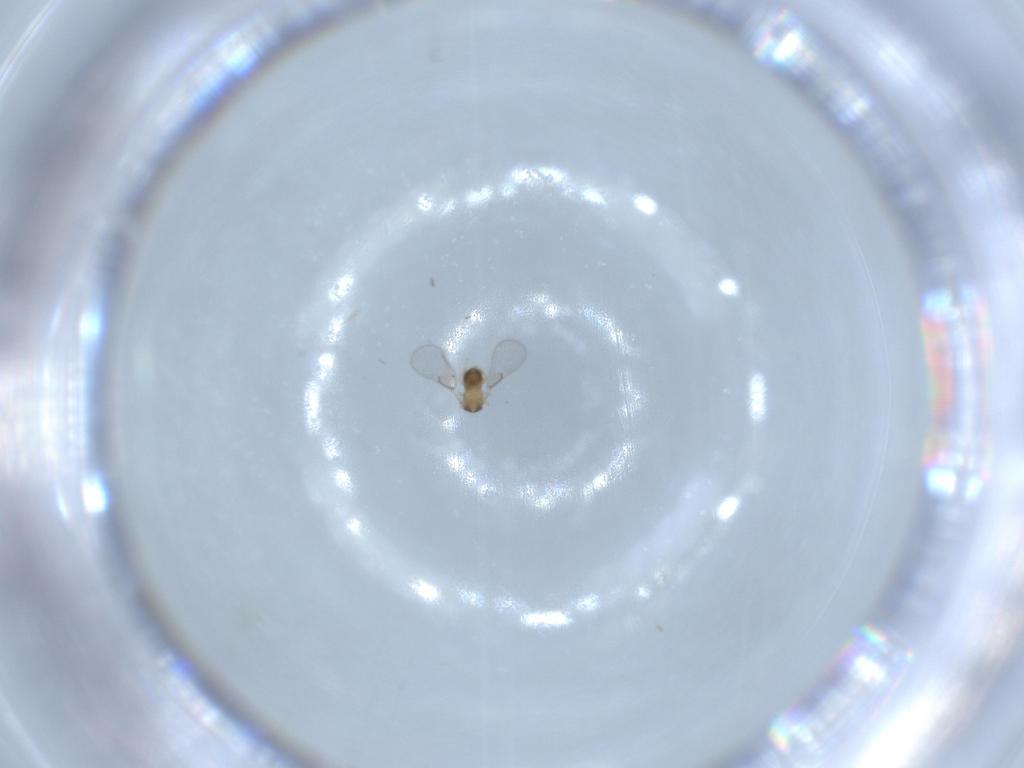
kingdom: Animalia
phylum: Arthropoda
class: Insecta
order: Hymenoptera
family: Trichogrammatidae
